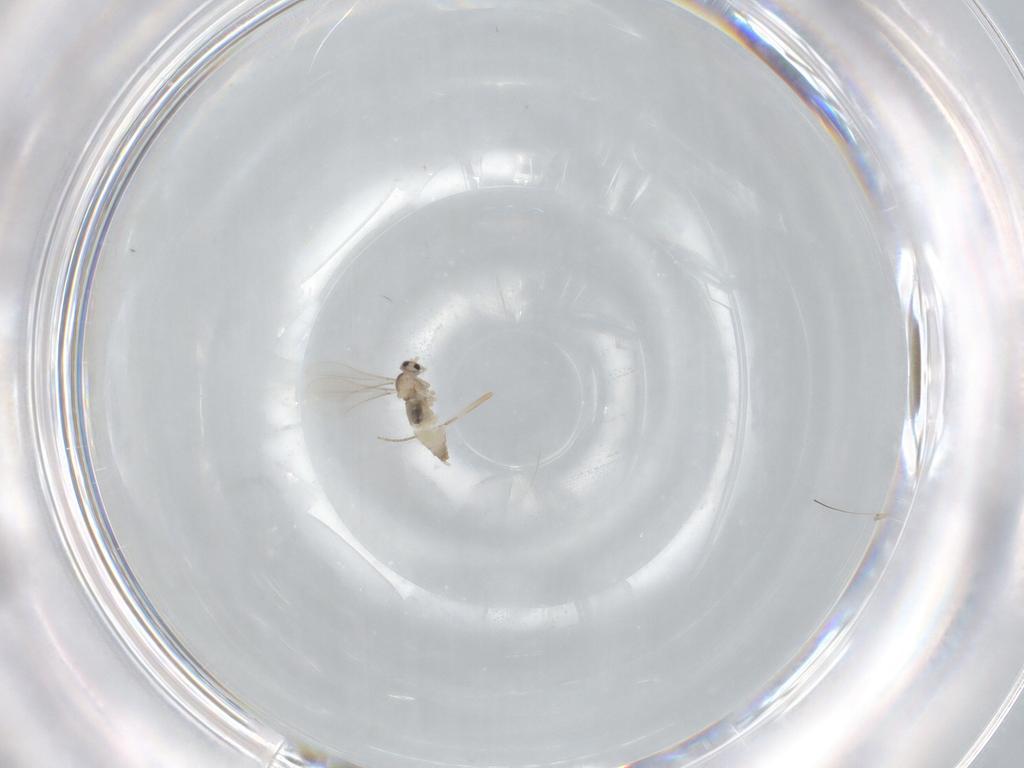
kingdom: Animalia
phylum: Arthropoda
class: Insecta
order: Diptera
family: Cecidomyiidae
